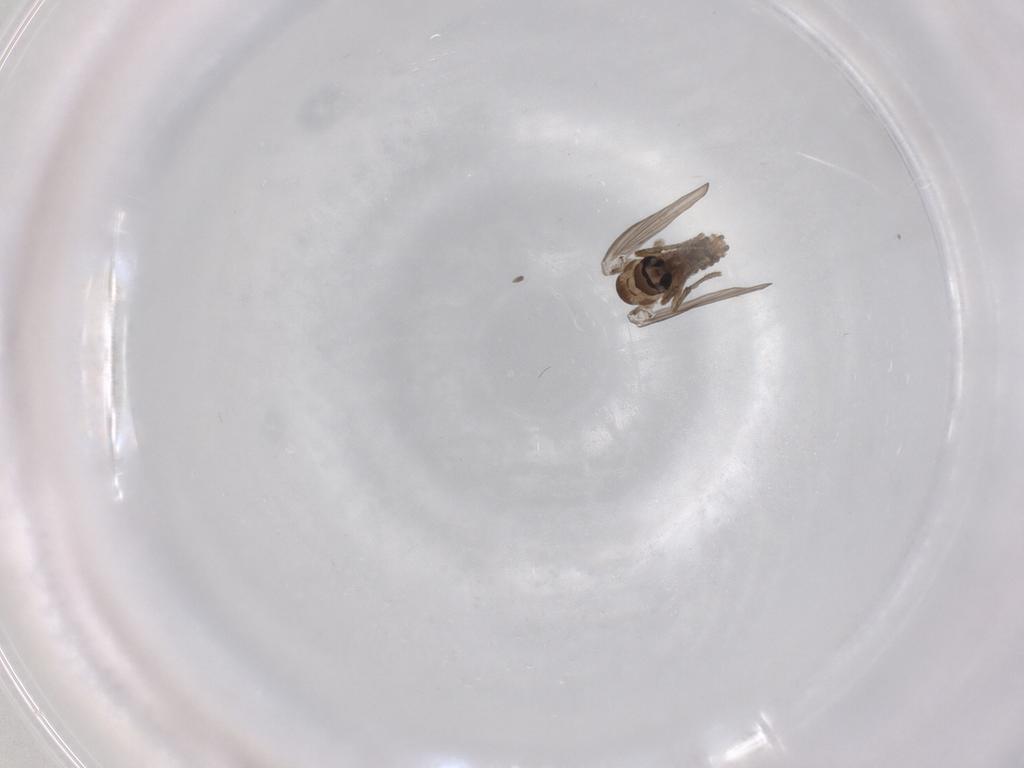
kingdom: Animalia
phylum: Arthropoda
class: Insecta
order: Diptera
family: Psychodidae
